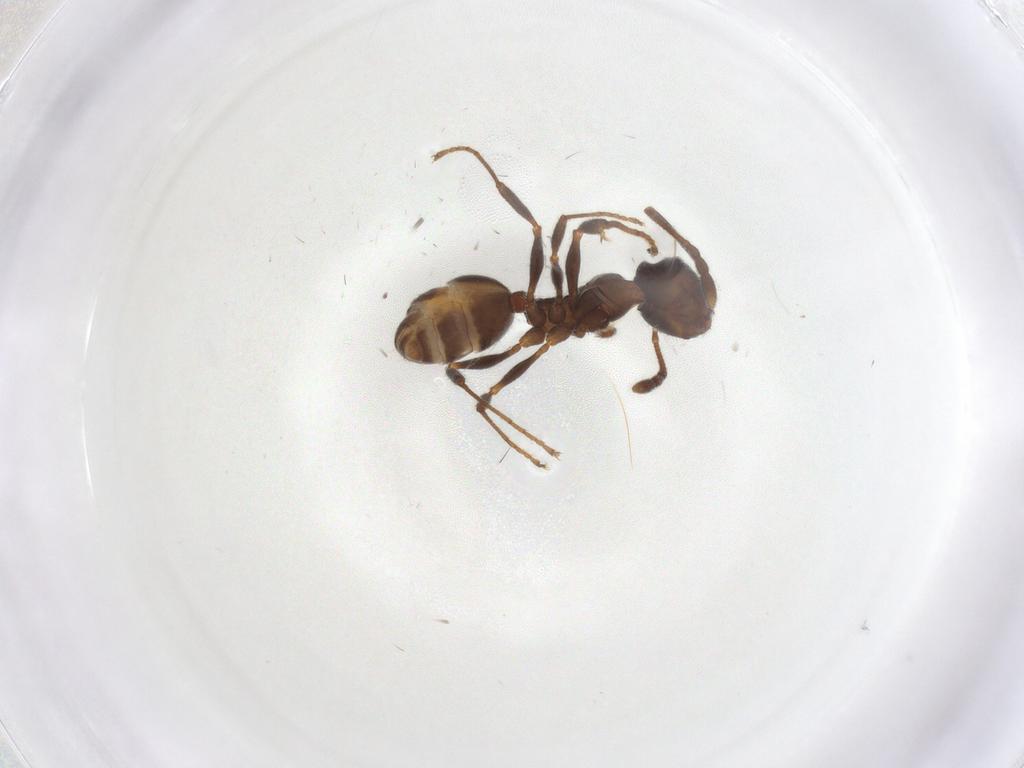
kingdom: Animalia
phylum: Arthropoda
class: Insecta
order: Hymenoptera
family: Formicidae
